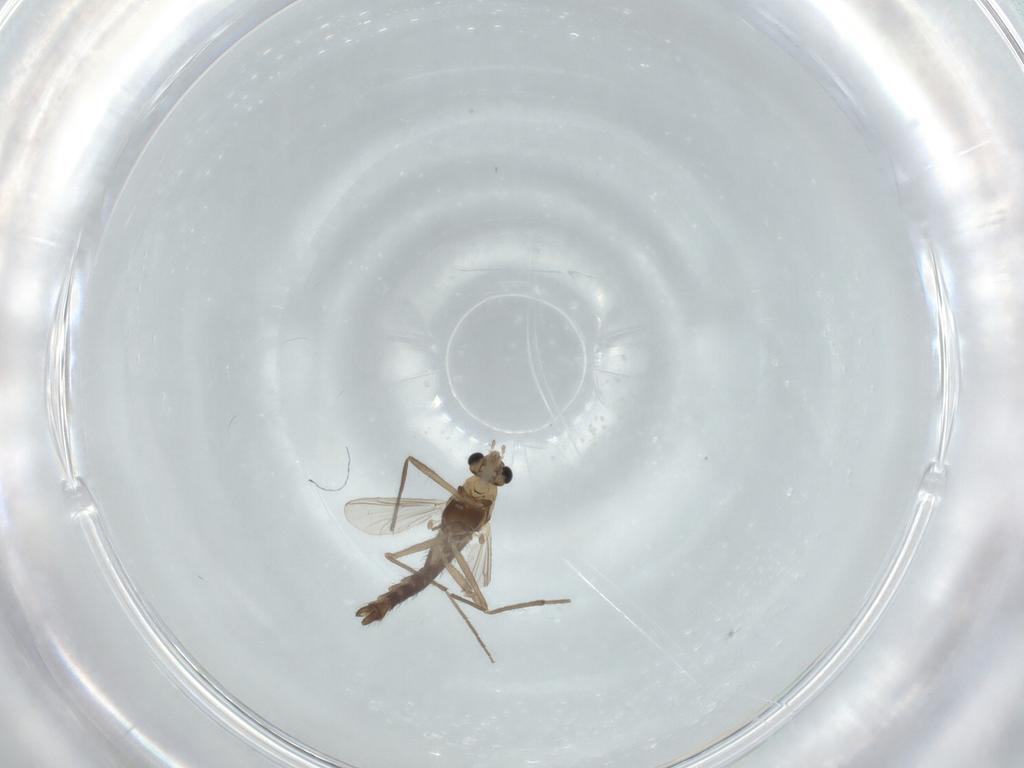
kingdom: Animalia
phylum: Arthropoda
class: Insecta
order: Diptera
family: Chironomidae
